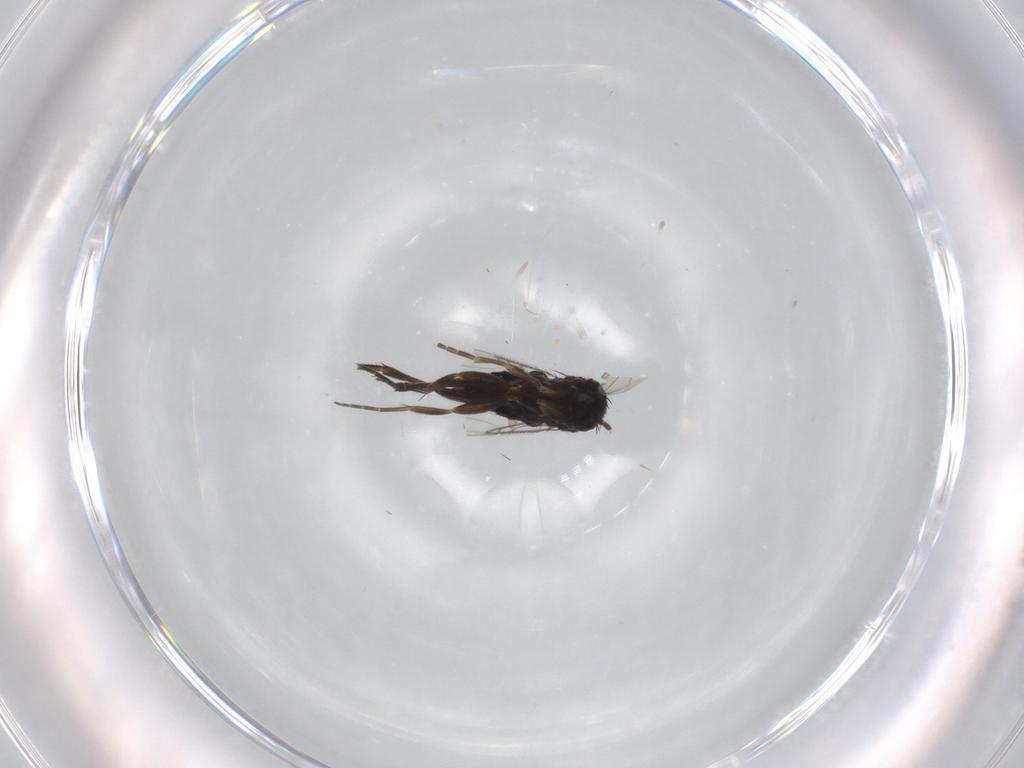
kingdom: Animalia
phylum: Arthropoda
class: Insecta
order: Diptera
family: Phoridae
